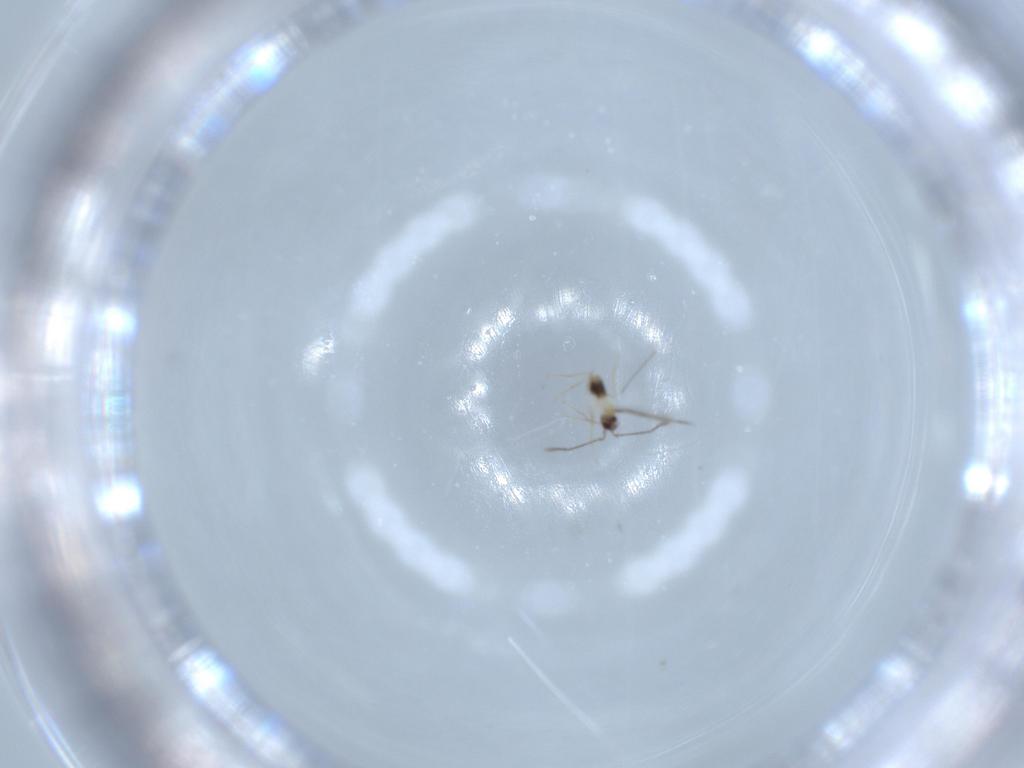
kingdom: Animalia
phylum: Arthropoda
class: Insecta
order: Hymenoptera
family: Mymaridae
